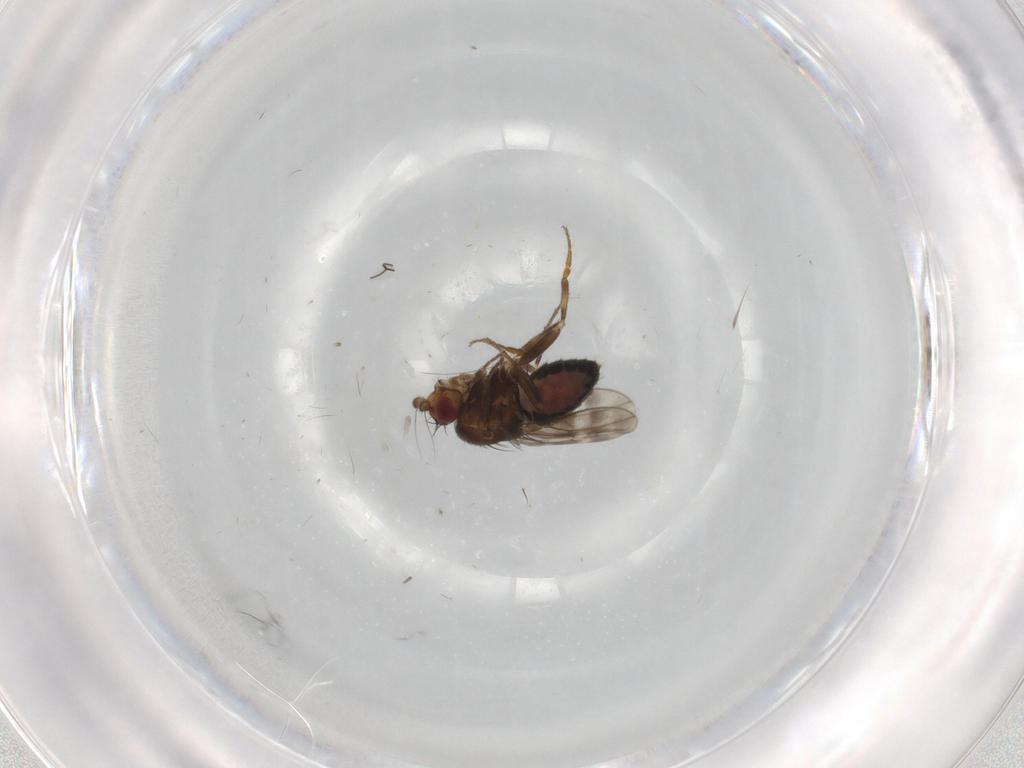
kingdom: Animalia
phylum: Arthropoda
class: Insecta
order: Diptera
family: Sphaeroceridae
